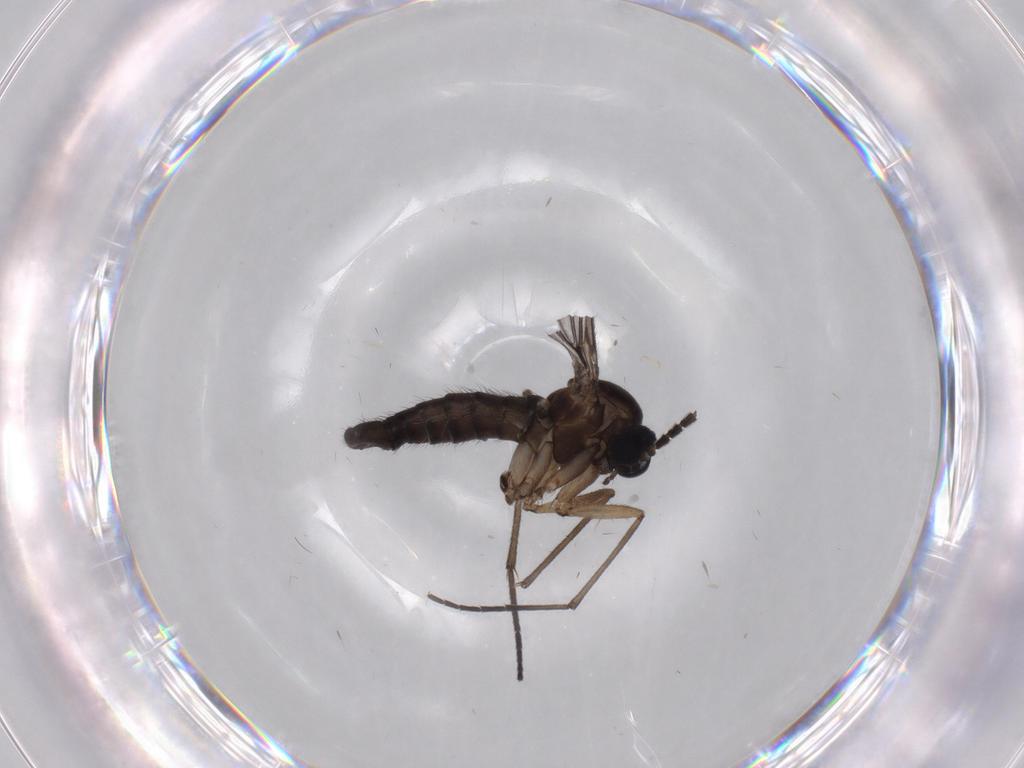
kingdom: Animalia
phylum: Arthropoda
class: Insecta
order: Diptera
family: Sciaridae
